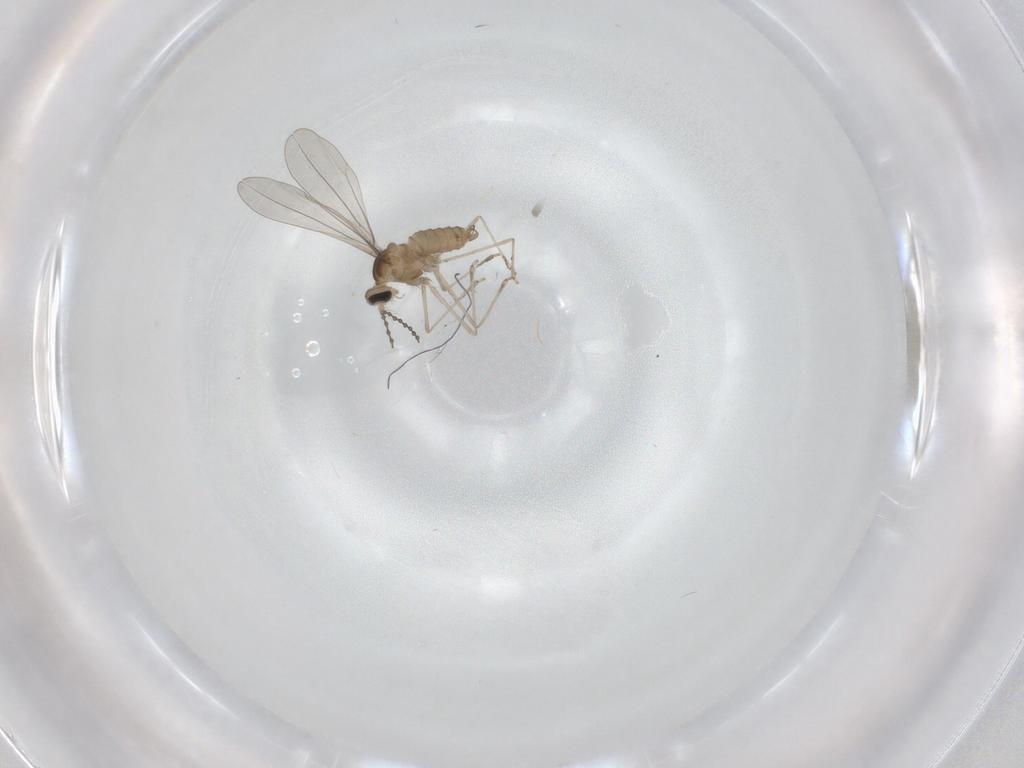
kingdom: Animalia
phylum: Arthropoda
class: Insecta
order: Diptera
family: Cecidomyiidae
